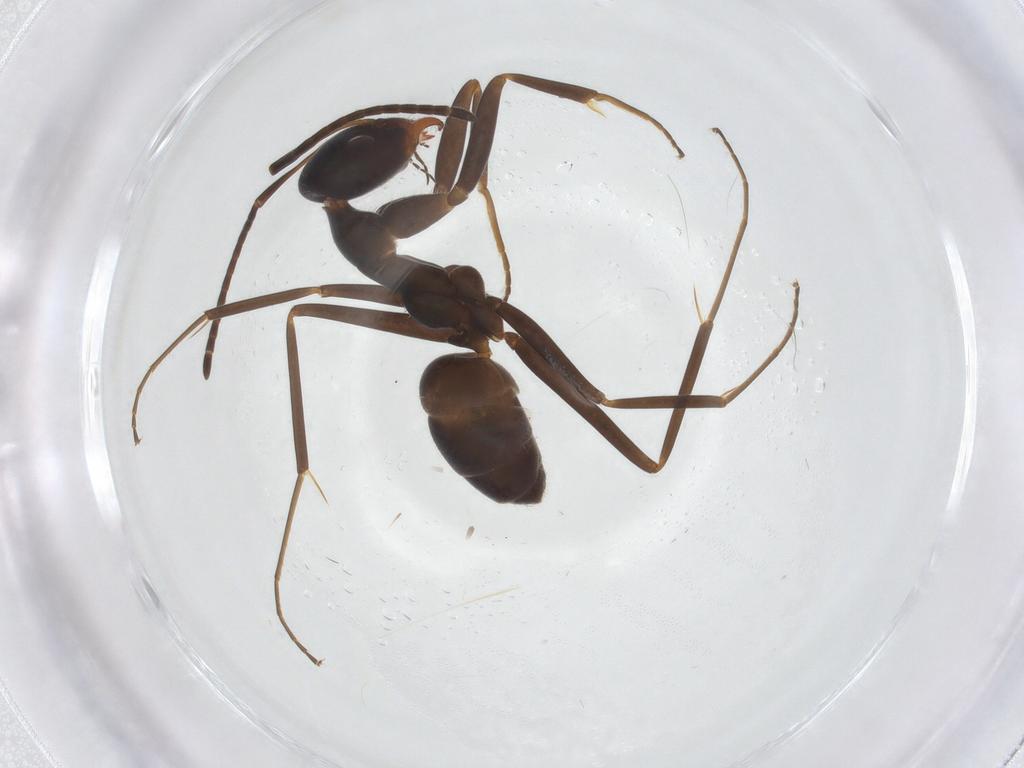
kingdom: Animalia
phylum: Arthropoda
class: Insecta
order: Hymenoptera
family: Formicidae
